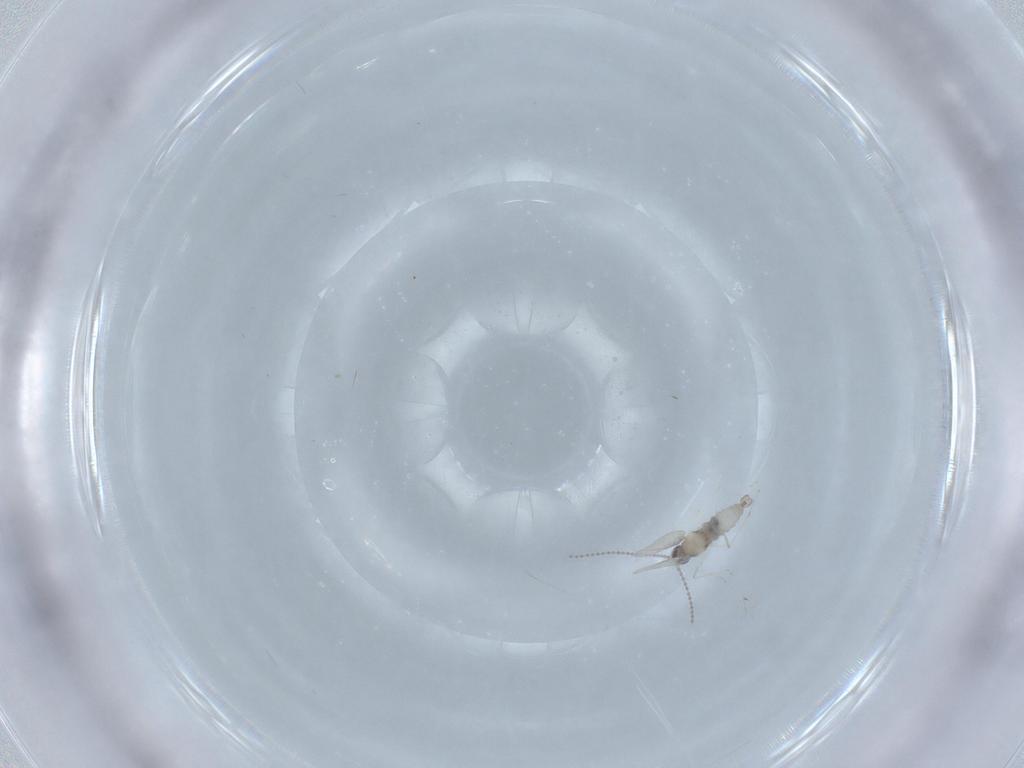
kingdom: Animalia
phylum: Arthropoda
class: Insecta
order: Diptera
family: Cecidomyiidae
